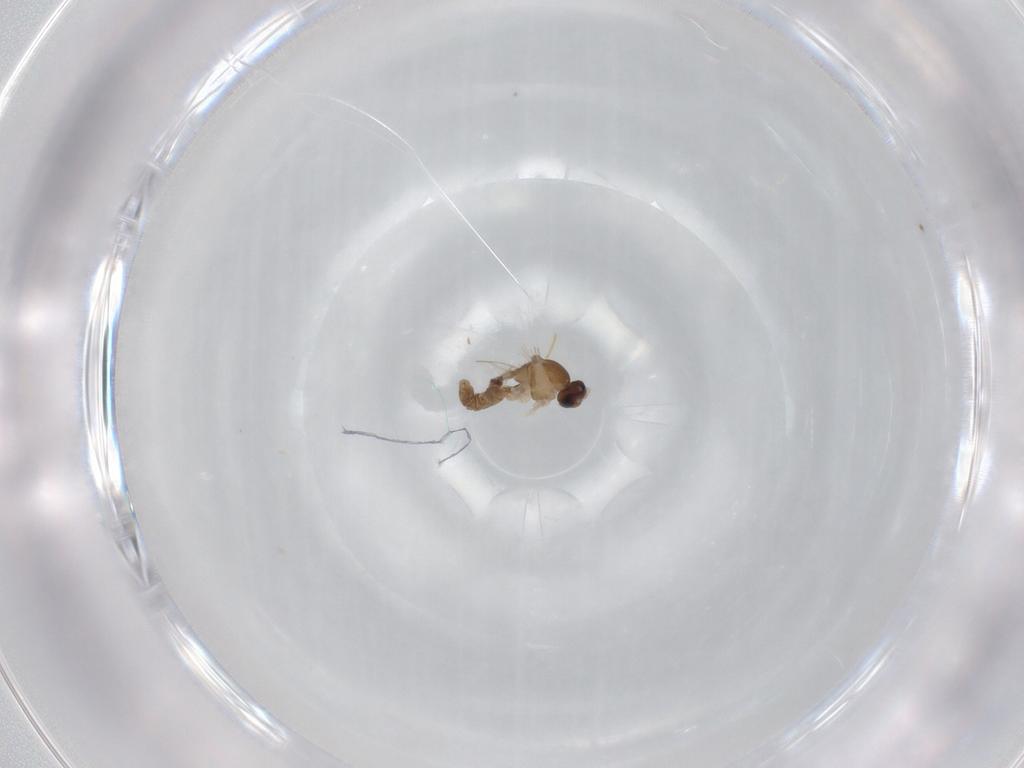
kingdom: Animalia
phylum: Arthropoda
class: Insecta
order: Diptera
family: Cecidomyiidae
